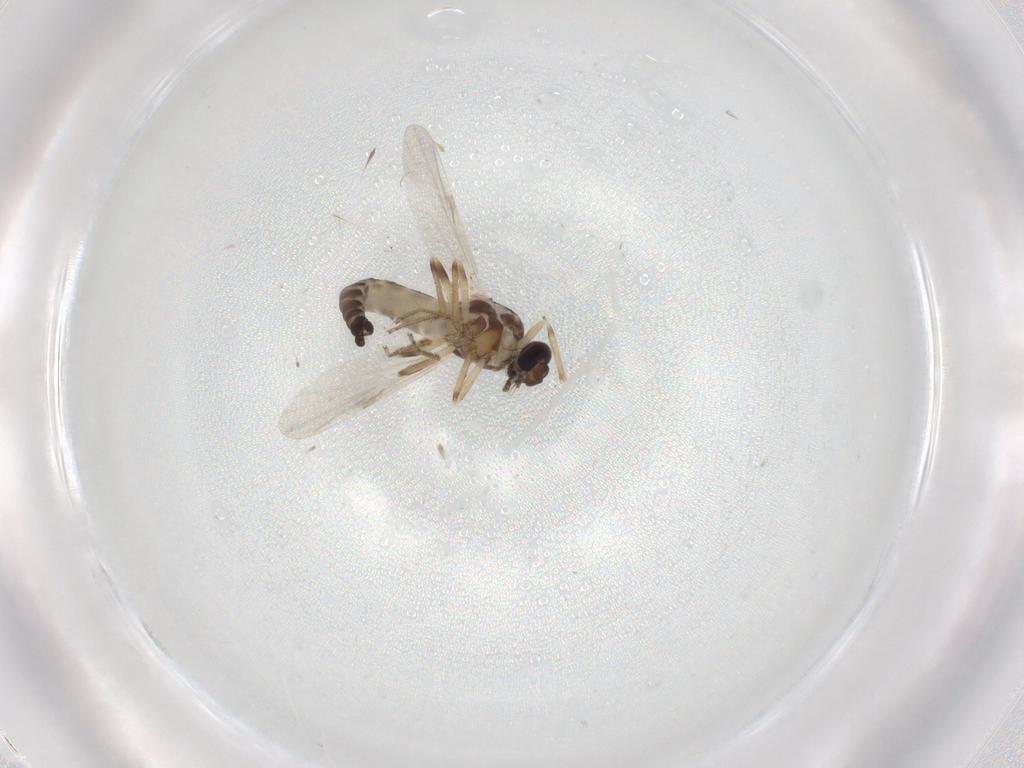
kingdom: Animalia
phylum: Arthropoda
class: Insecta
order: Diptera
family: Ceratopogonidae
